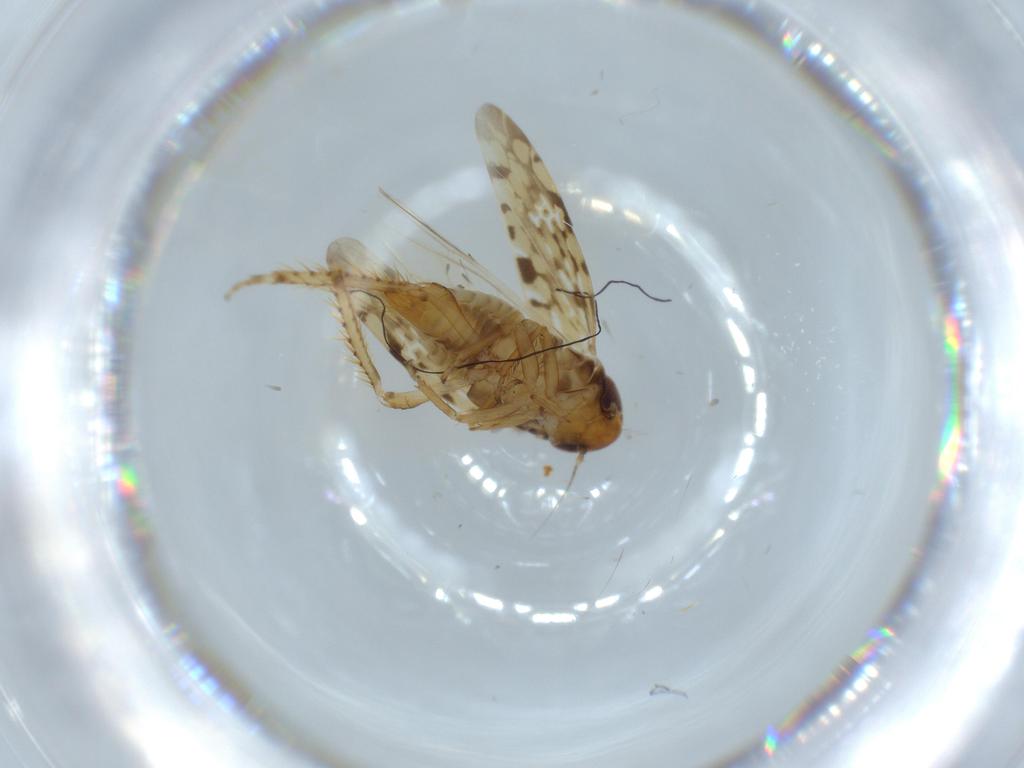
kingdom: Animalia
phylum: Arthropoda
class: Insecta
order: Hemiptera
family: Cicadellidae
